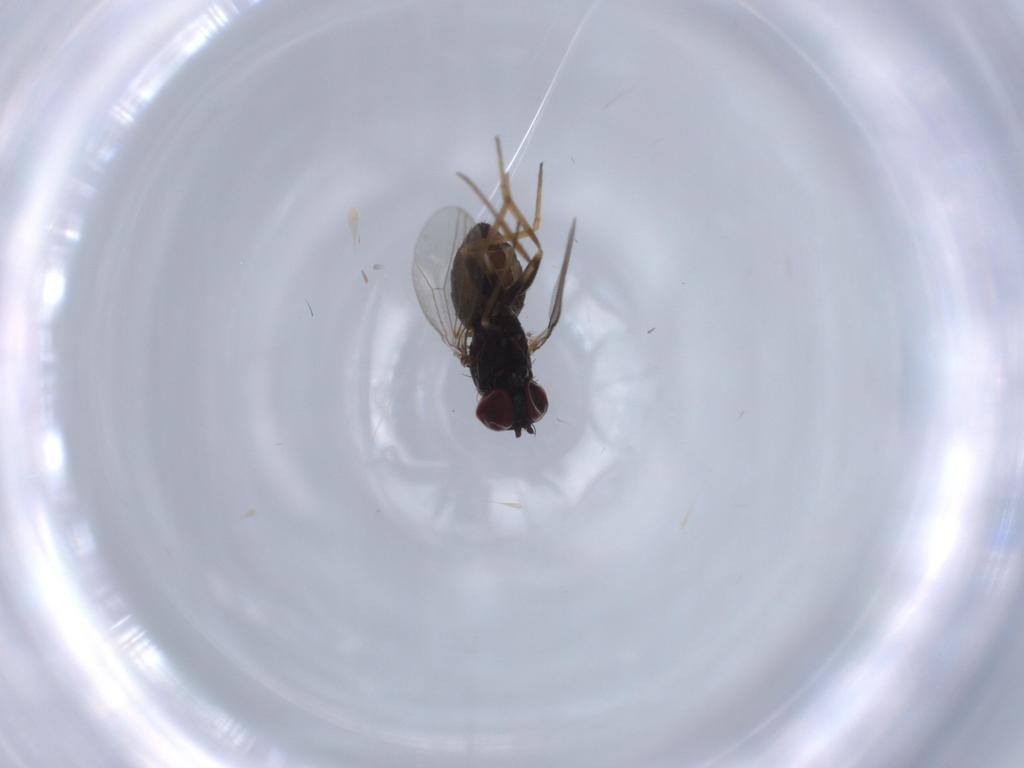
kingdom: Animalia
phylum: Arthropoda
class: Insecta
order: Diptera
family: Dolichopodidae
